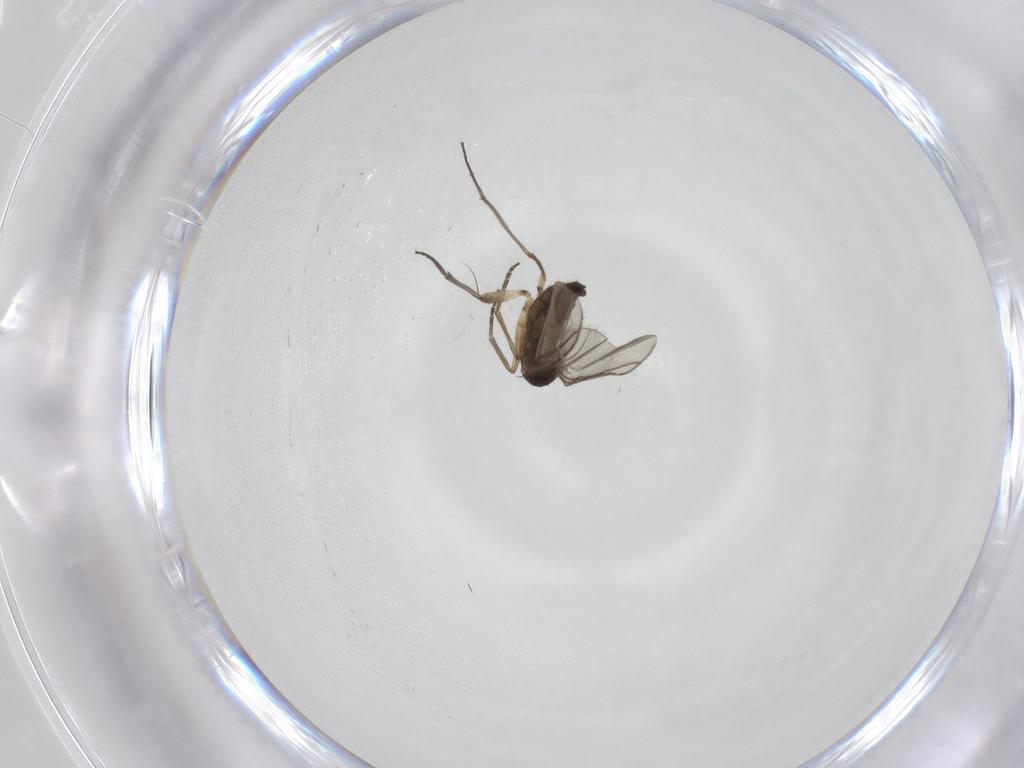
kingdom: Animalia
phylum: Arthropoda
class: Insecta
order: Diptera
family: Sciaridae
